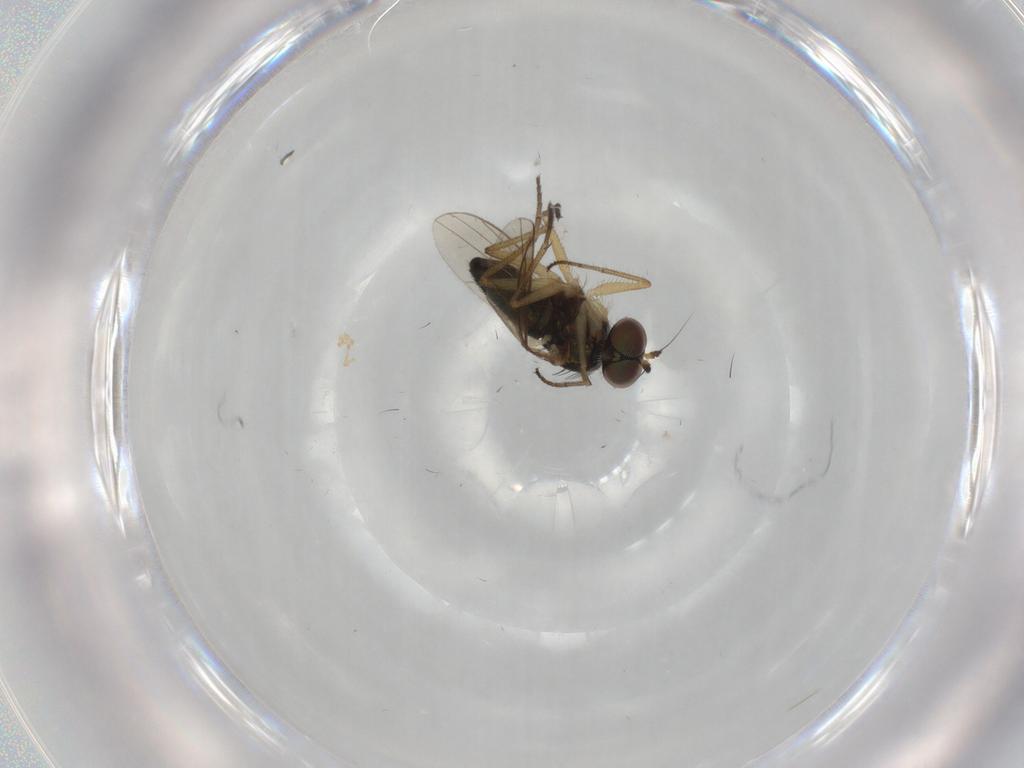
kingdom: Animalia
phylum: Arthropoda
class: Insecta
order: Diptera
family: Dolichopodidae
